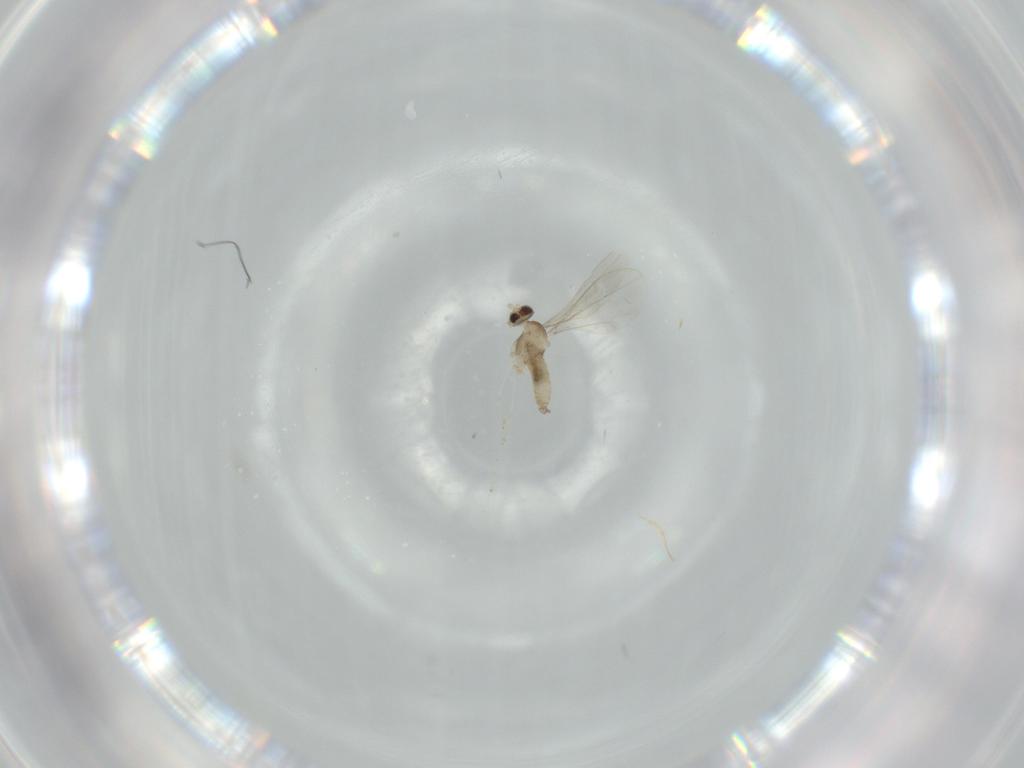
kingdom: Animalia
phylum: Arthropoda
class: Insecta
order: Diptera
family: Cecidomyiidae
